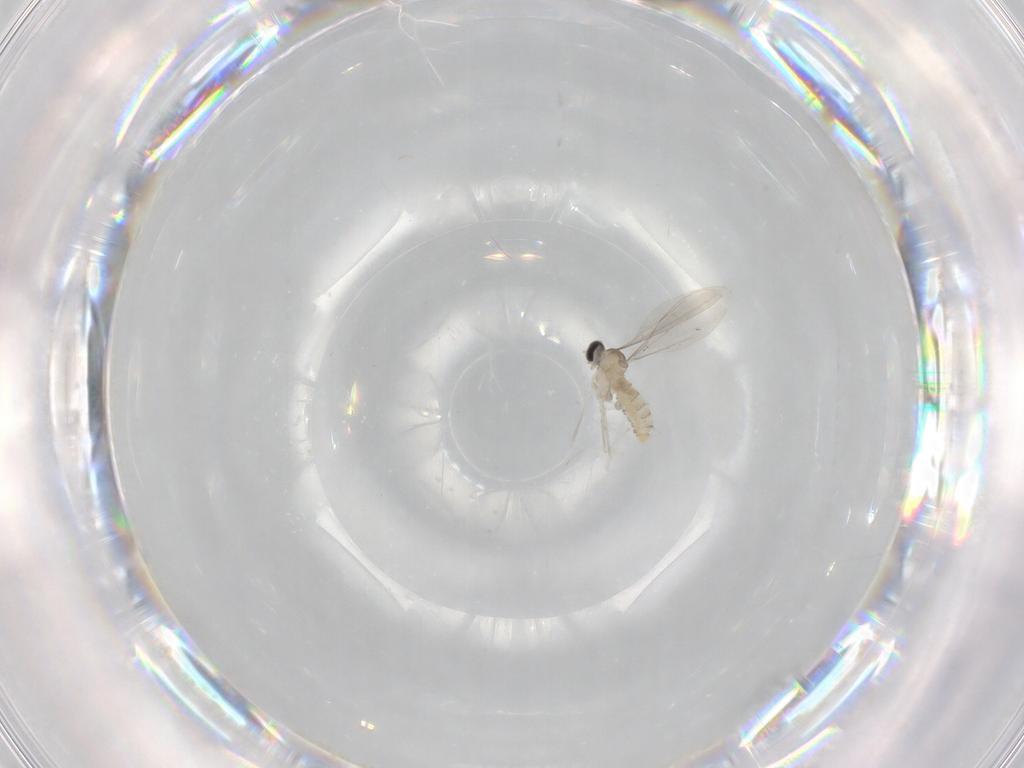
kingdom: Animalia
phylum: Arthropoda
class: Insecta
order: Diptera
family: Cecidomyiidae
